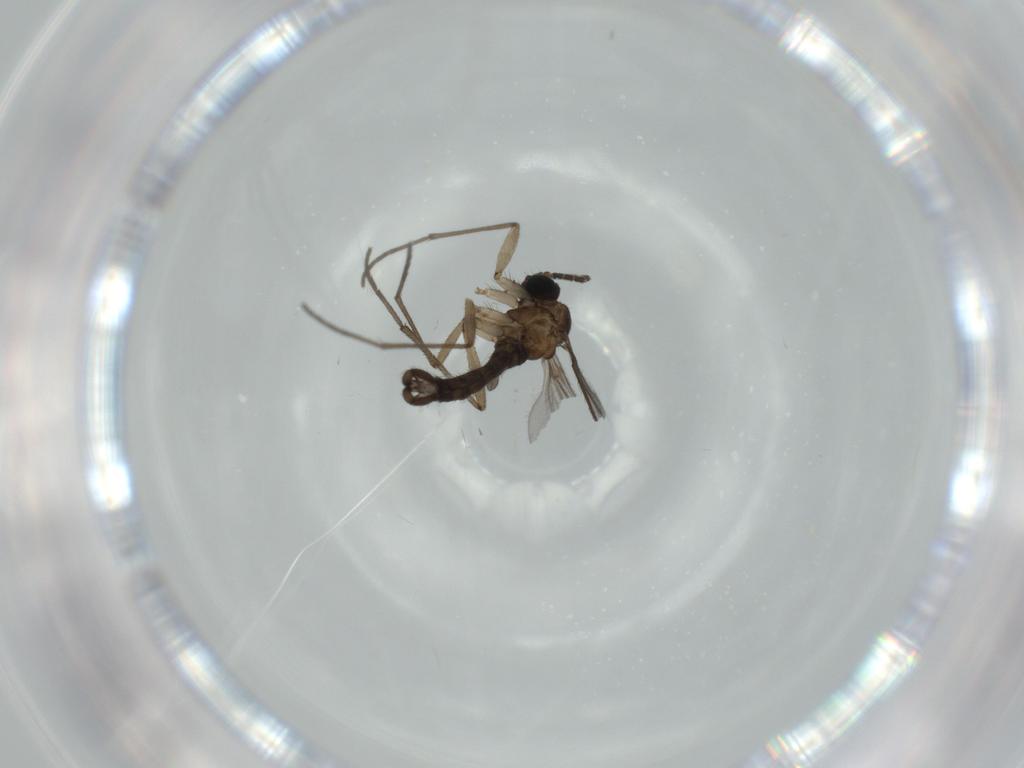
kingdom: Animalia
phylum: Arthropoda
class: Insecta
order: Diptera
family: Sciaridae
